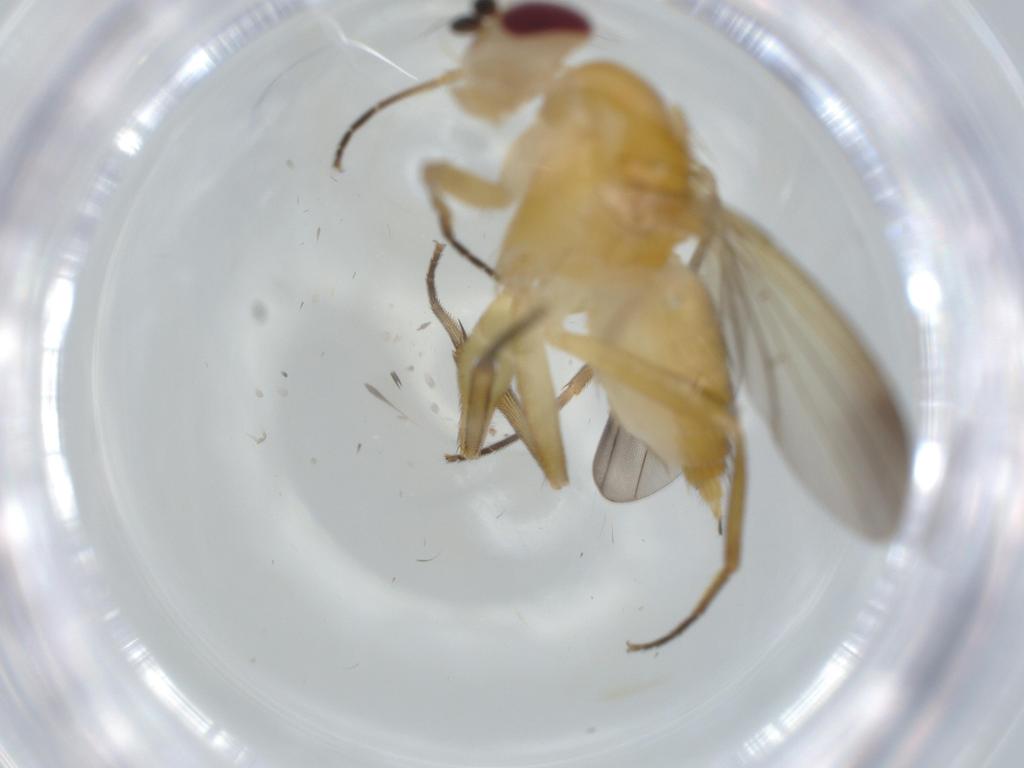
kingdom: Animalia
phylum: Arthropoda
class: Insecta
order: Diptera
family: Clusiidae
